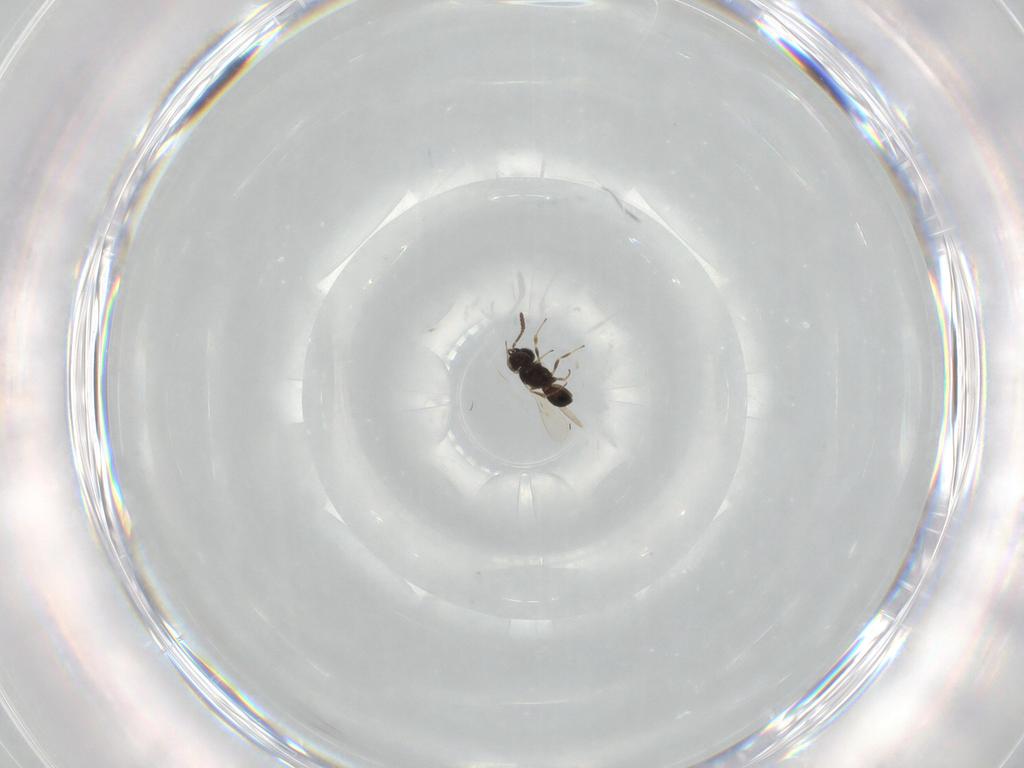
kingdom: Animalia
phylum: Arthropoda
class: Insecta
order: Hymenoptera
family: Scelionidae
